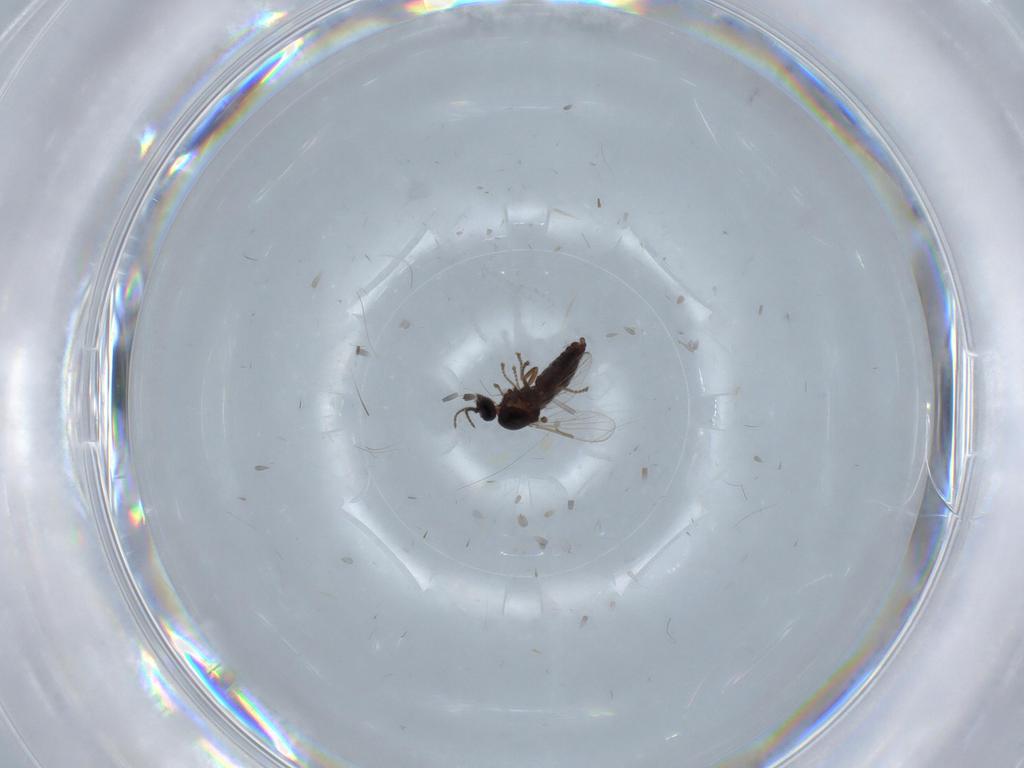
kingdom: Animalia
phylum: Arthropoda
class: Insecta
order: Diptera
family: Ceratopogonidae
